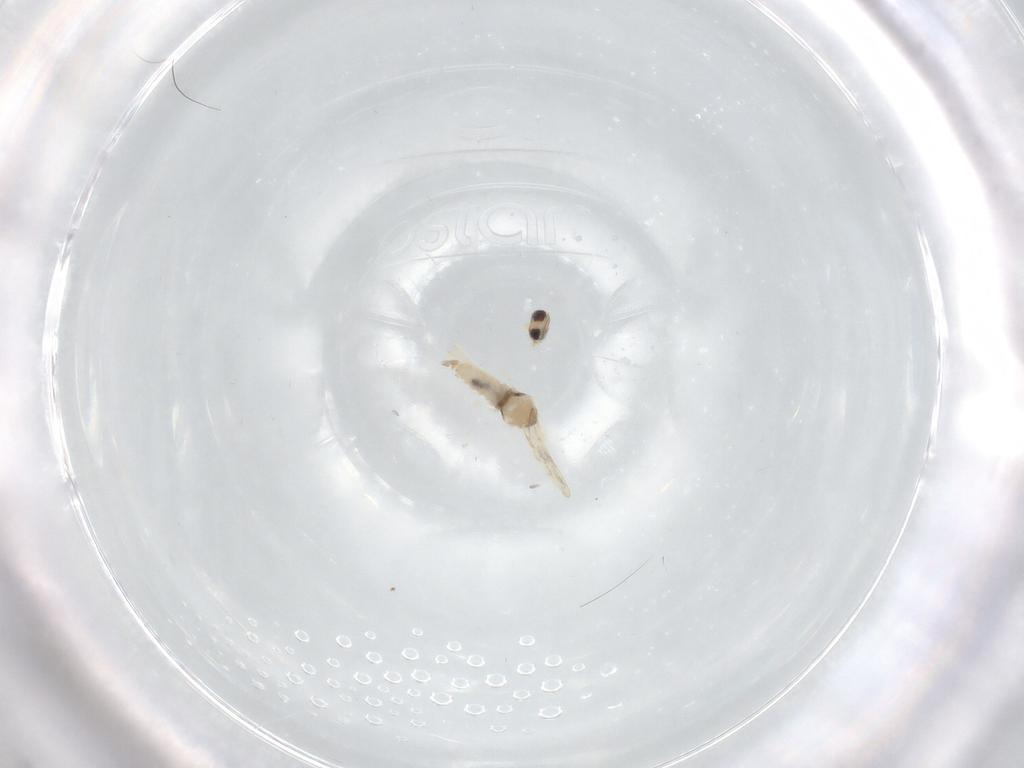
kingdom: Animalia
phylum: Arthropoda
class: Insecta
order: Diptera
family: Cecidomyiidae
